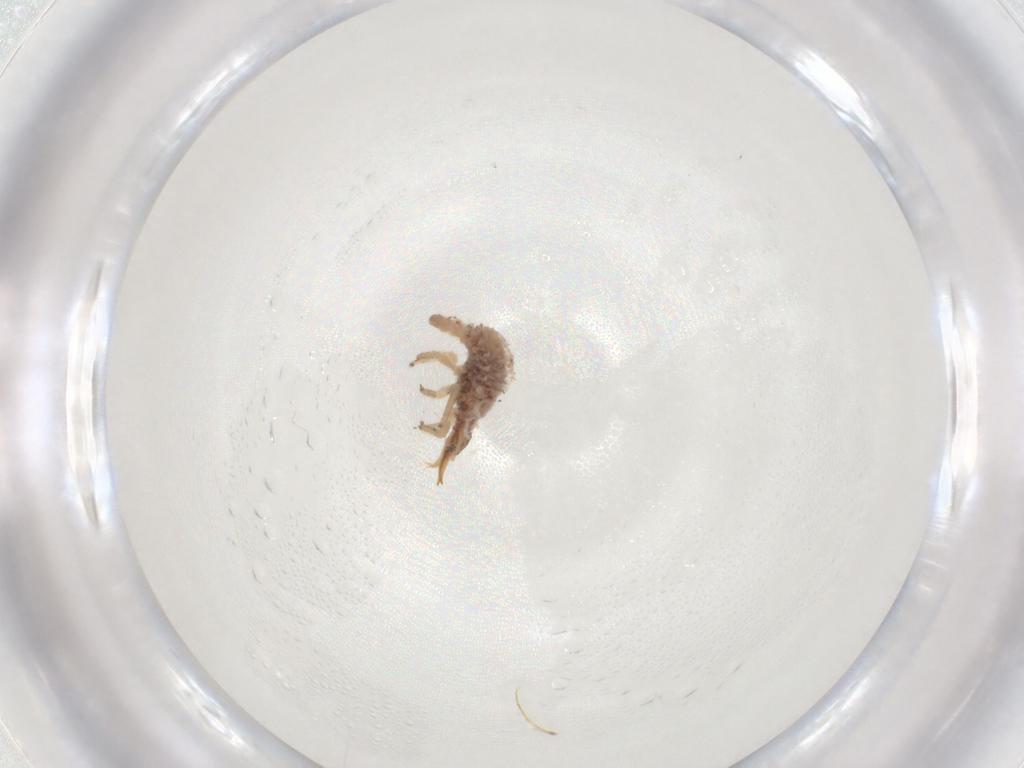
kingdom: Animalia
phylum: Arthropoda
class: Insecta
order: Neuroptera
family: Chrysopidae
